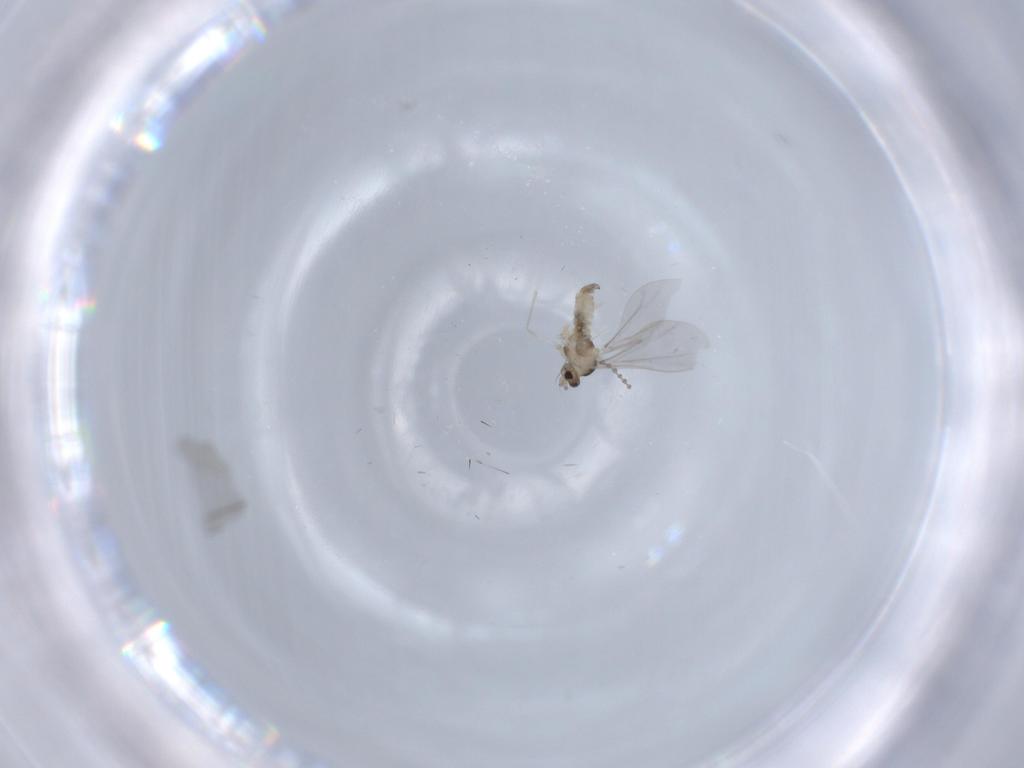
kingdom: Animalia
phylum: Arthropoda
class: Insecta
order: Diptera
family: Cecidomyiidae
